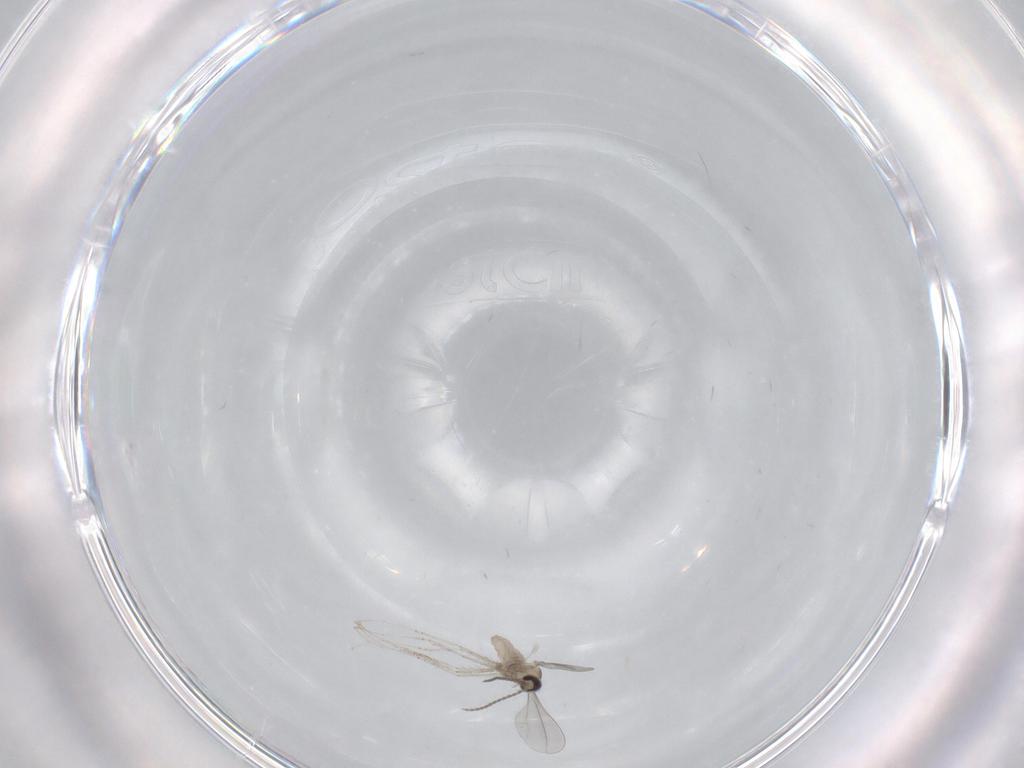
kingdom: Animalia
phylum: Arthropoda
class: Insecta
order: Diptera
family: Cecidomyiidae
